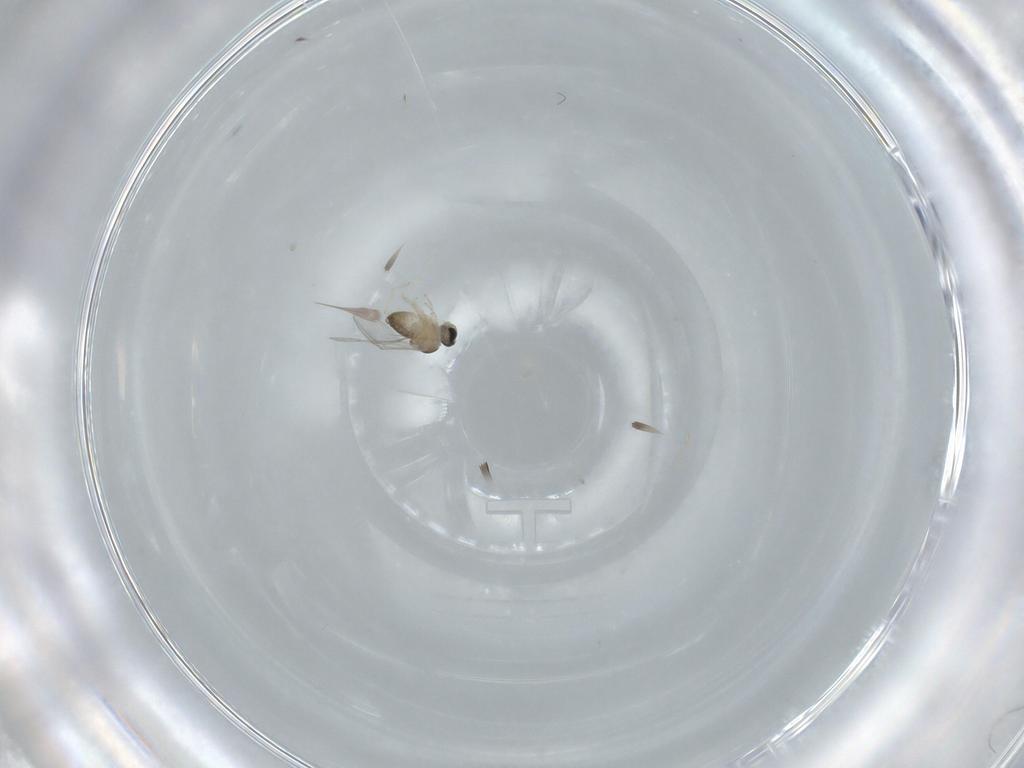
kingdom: Animalia
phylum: Arthropoda
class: Insecta
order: Diptera
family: Cecidomyiidae
